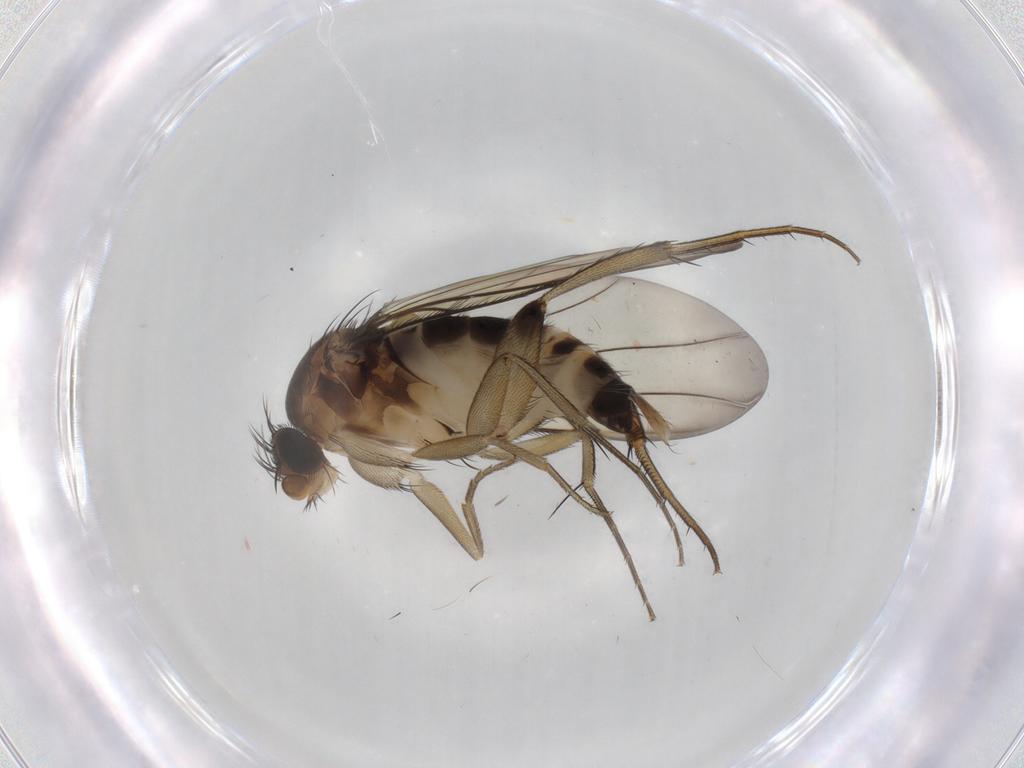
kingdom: Animalia
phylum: Arthropoda
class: Insecta
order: Diptera
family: Phoridae
